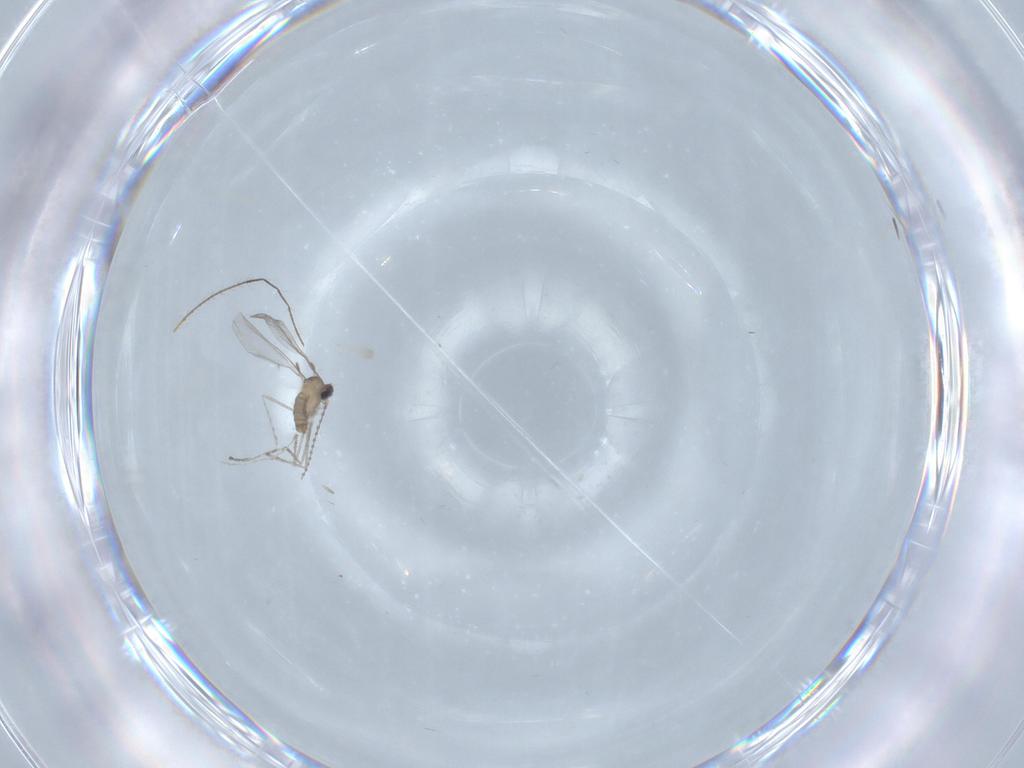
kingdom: Animalia
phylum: Arthropoda
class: Insecta
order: Diptera
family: Cecidomyiidae
